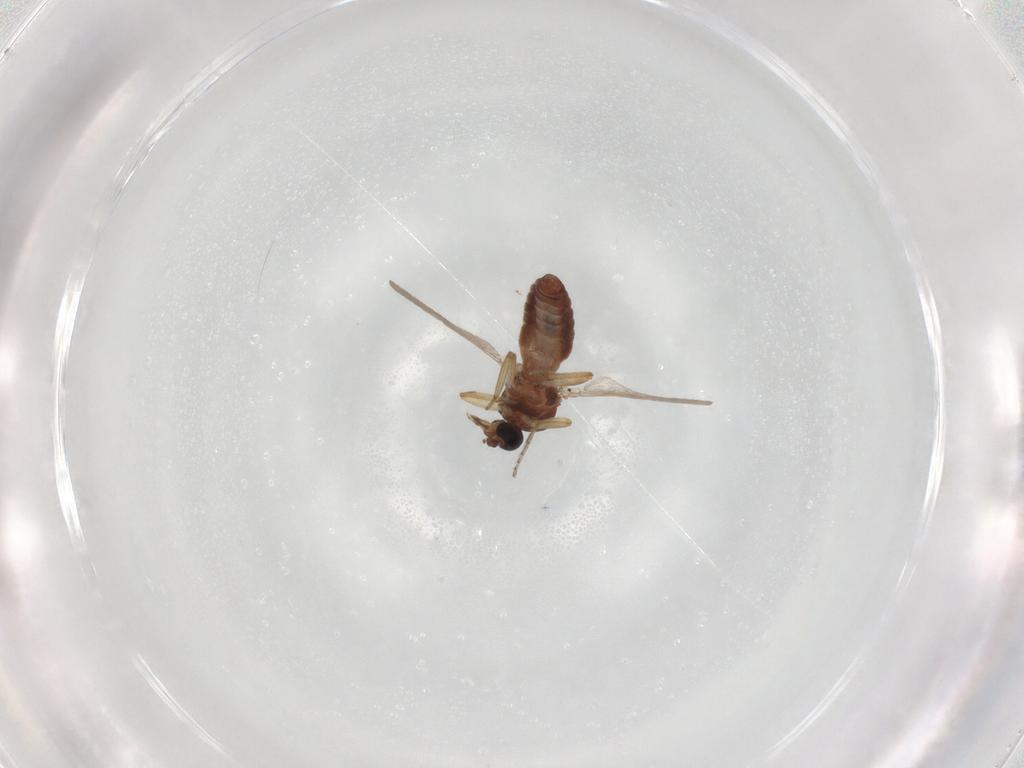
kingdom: Animalia
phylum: Arthropoda
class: Insecta
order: Diptera
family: Ceratopogonidae
